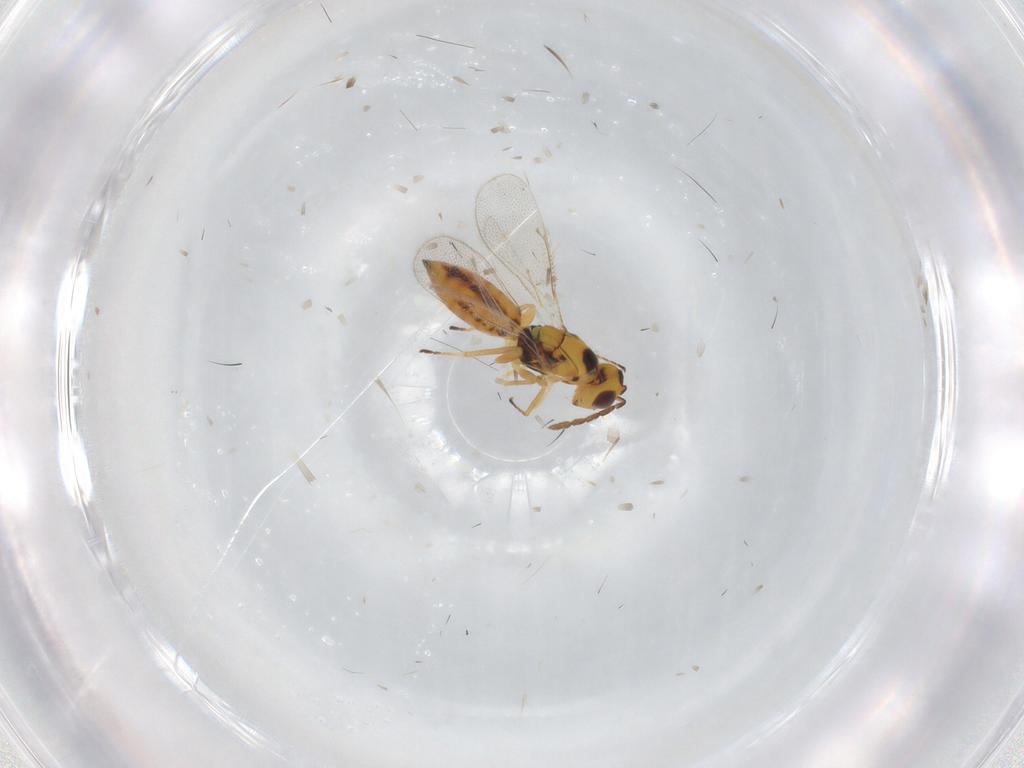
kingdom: Animalia
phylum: Arthropoda
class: Insecta
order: Hymenoptera
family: Eulophidae
